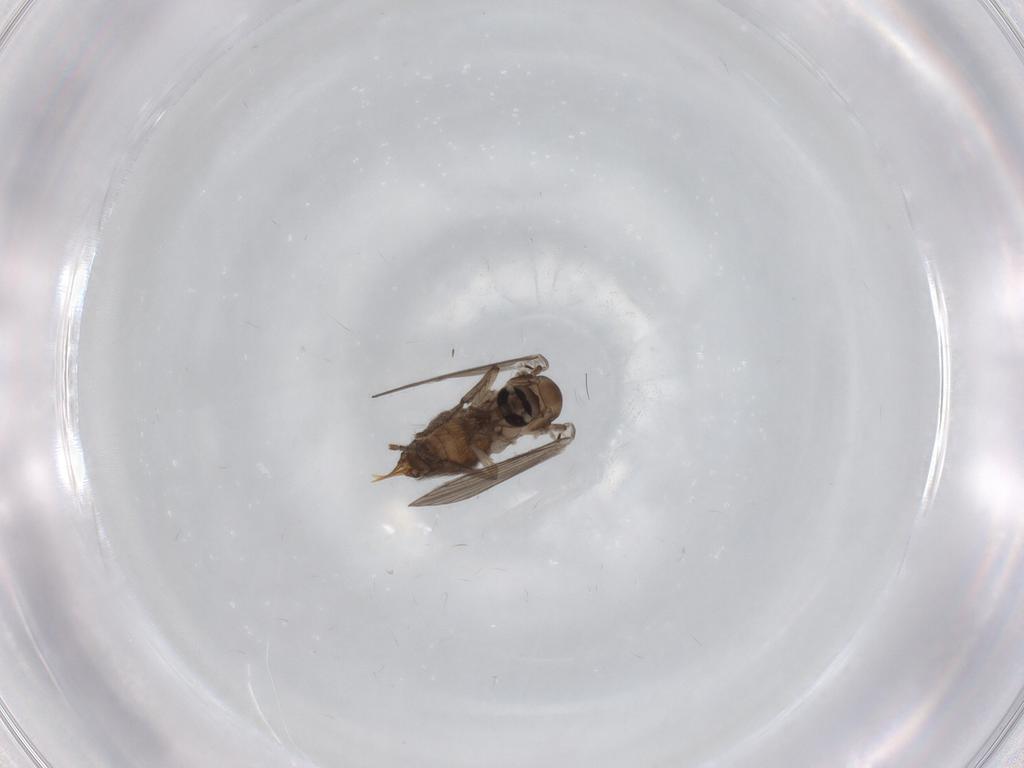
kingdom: Animalia
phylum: Arthropoda
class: Insecta
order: Diptera
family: Psychodidae
